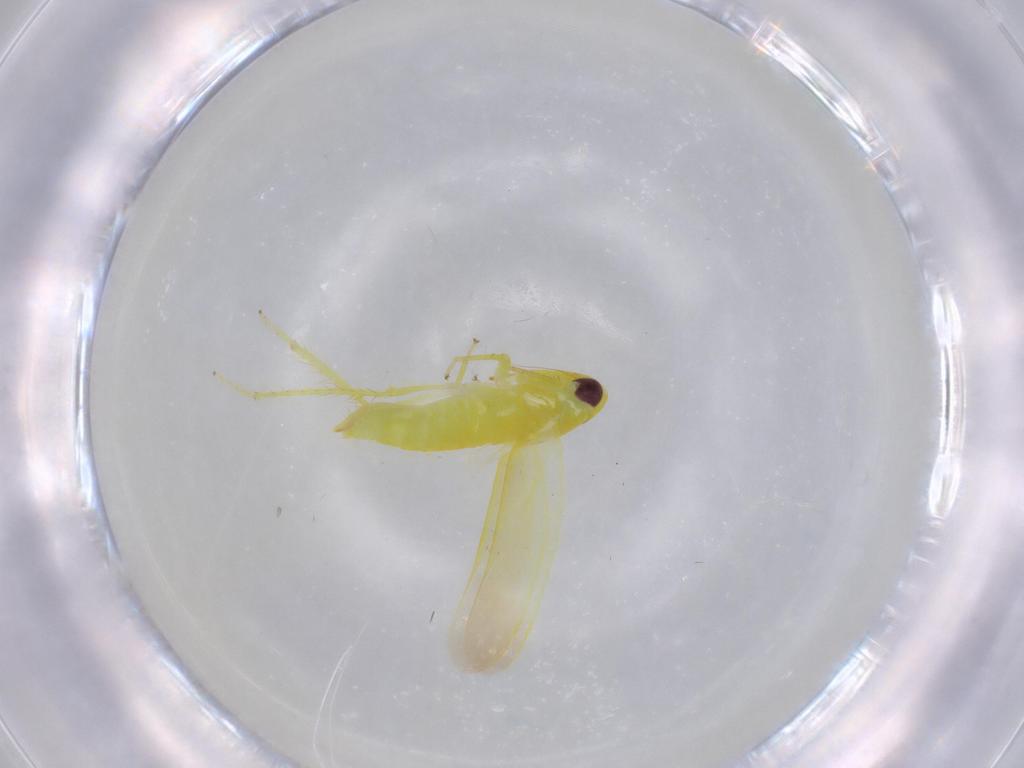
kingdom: Animalia
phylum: Arthropoda
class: Insecta
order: Hemiptera
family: Cicadellidae
